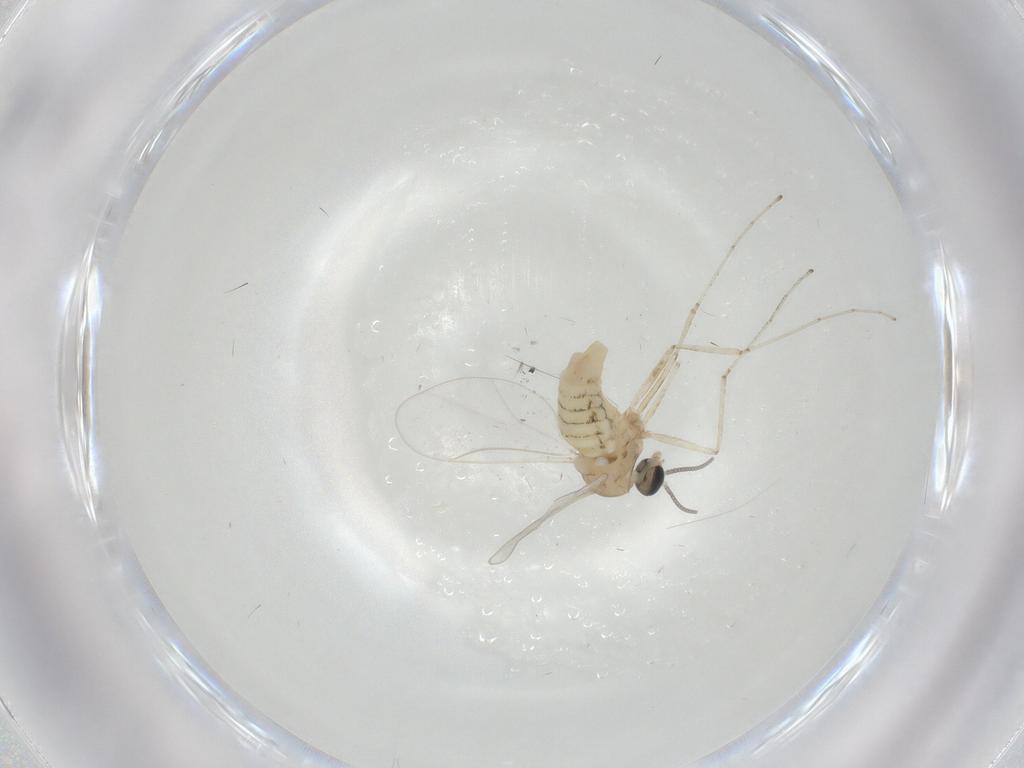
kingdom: Animalia
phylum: Arthropoda
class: Insecta
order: Diptera
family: Cecidomyiidae
